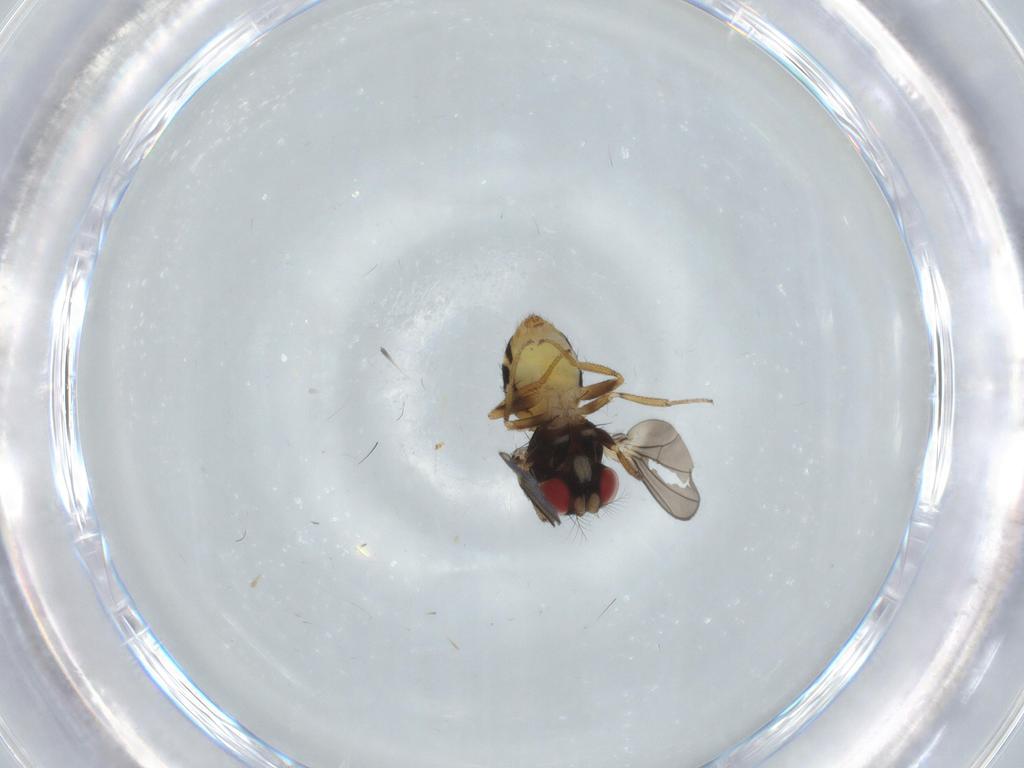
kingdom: Animalia
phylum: Arthropoda
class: Insecta
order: Diptera
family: Drosophilidae
